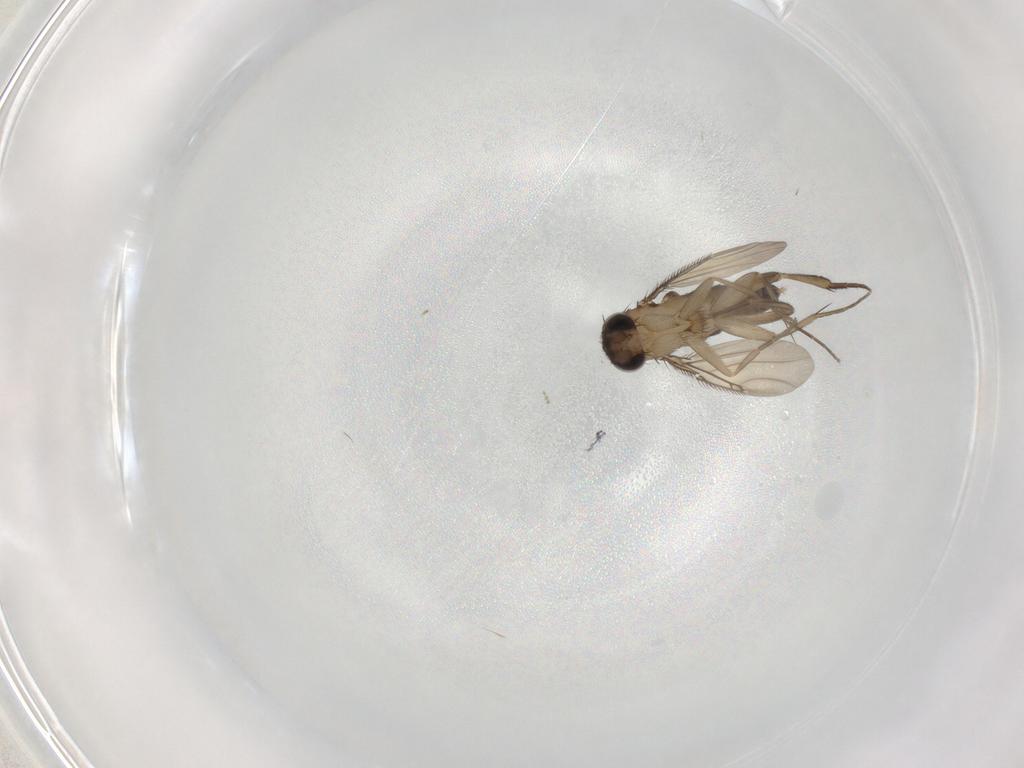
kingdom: Animalia
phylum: Arthropoda
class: Insecta
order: Diptera
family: Phoridae
